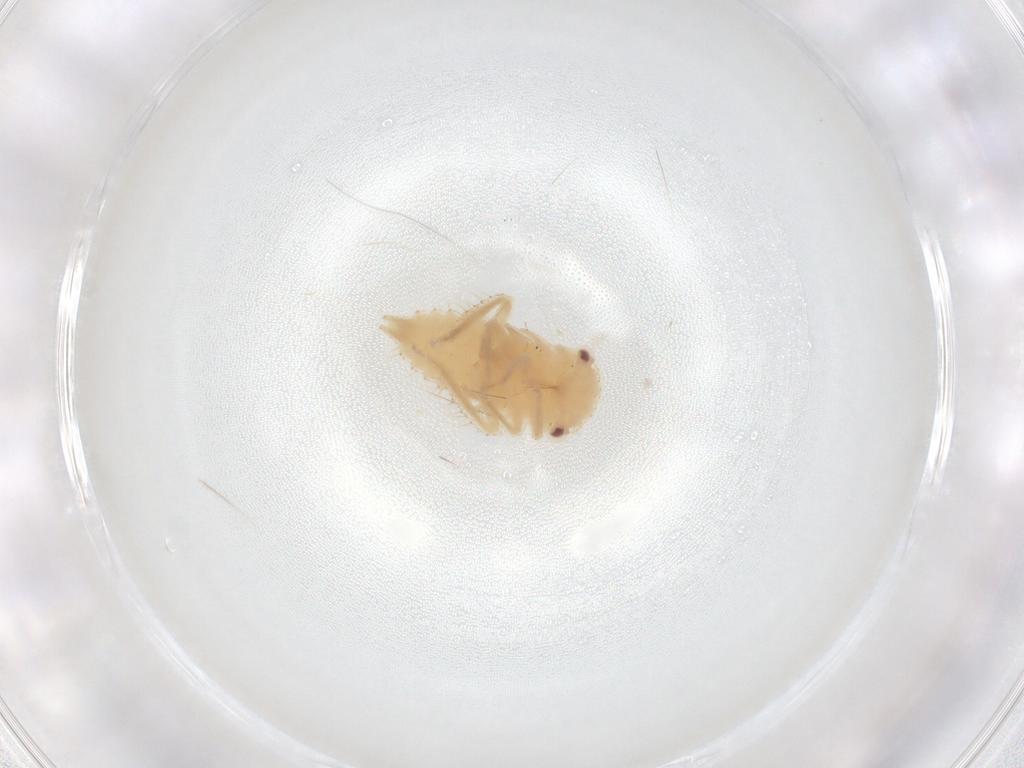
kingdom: Animalia
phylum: Arthropoda
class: Insecta
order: Hemiptera
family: Cicadellidae
